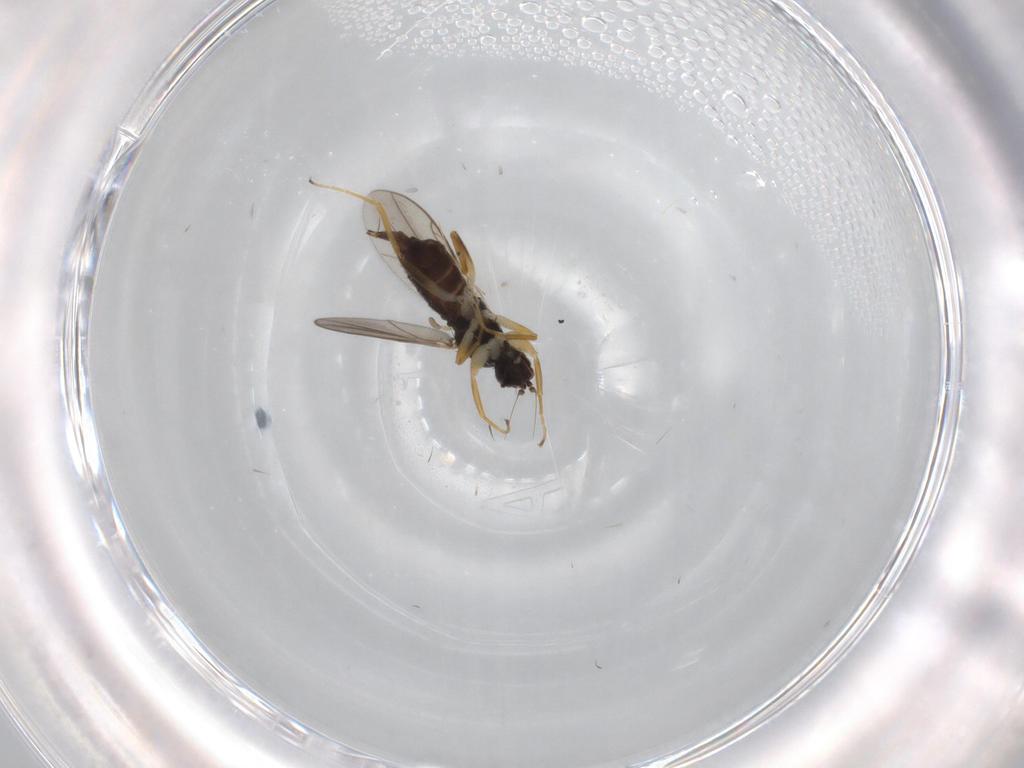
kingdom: Animalia
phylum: Arthropoda
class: Insecta
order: Diptera
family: Hybotidae
